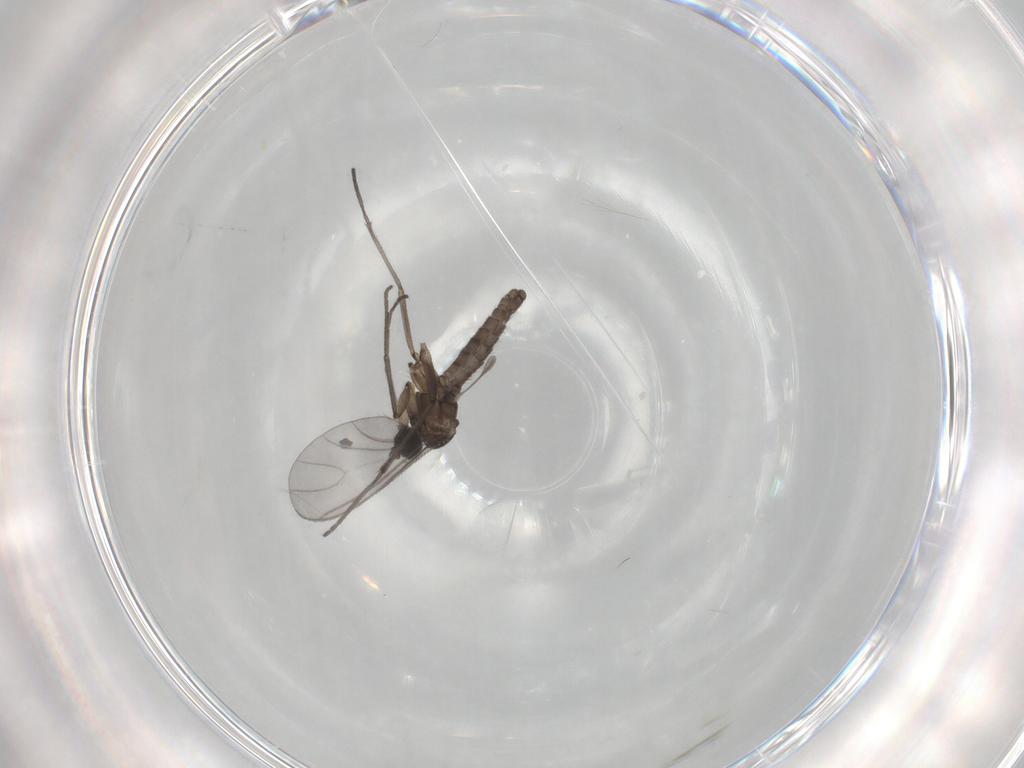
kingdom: Animalia
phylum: Arthropoda
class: Insecta
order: Diptera
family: Sciaridae
